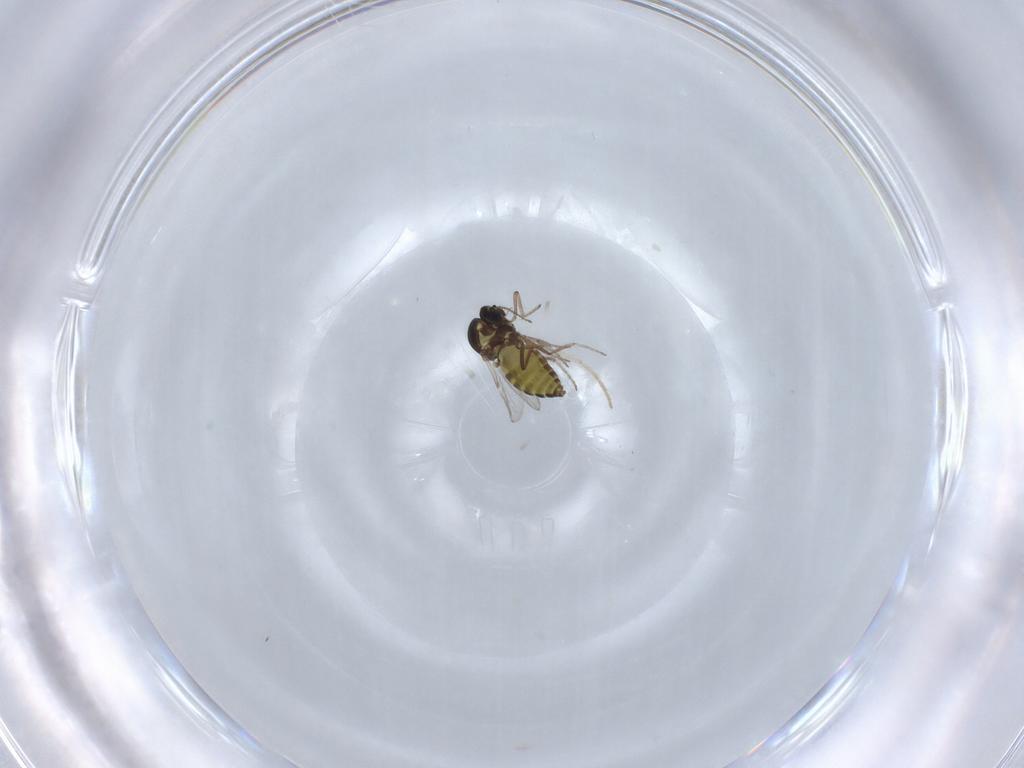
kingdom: Animalia
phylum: Arthropoda
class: Insecta
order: Diptera
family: Ceratopogonidae
